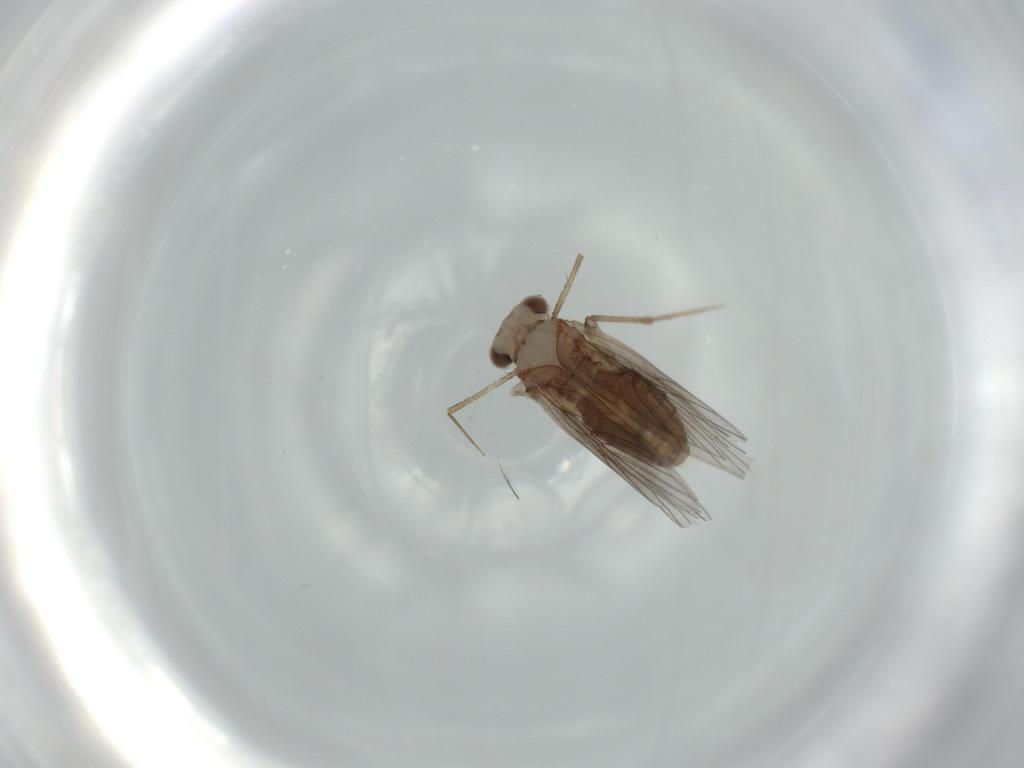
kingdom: Animalia
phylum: Arthropoda
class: Insecta
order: Psocodea
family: Lepidopsocidae
